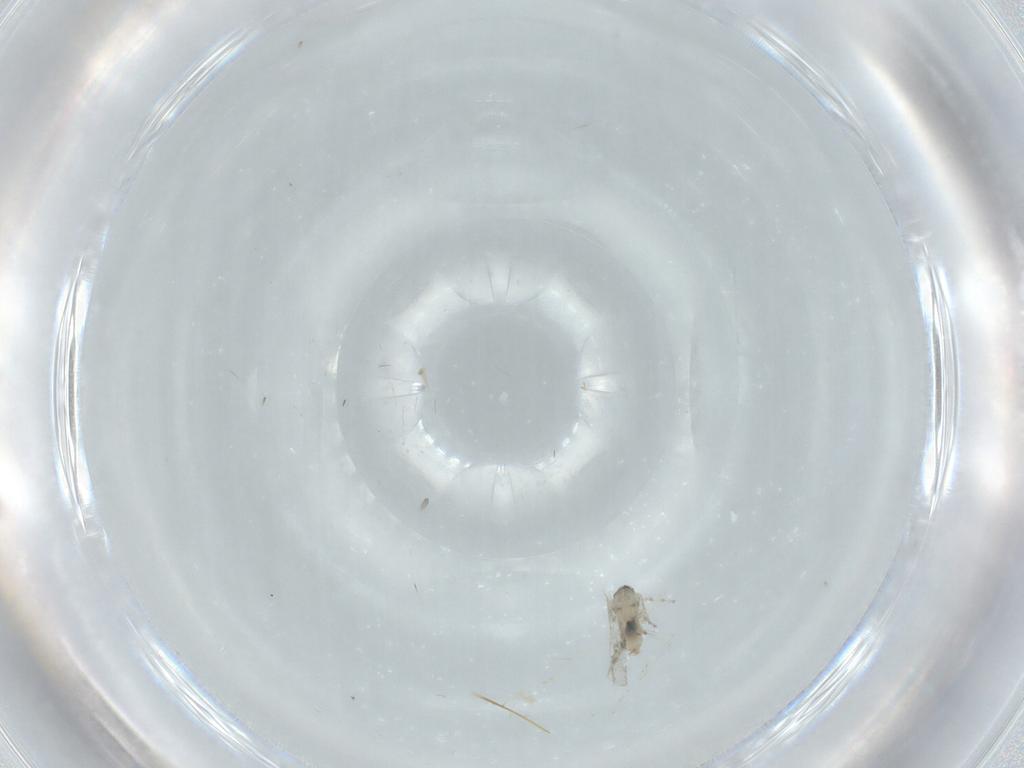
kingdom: Animalia
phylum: Arthropoda
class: Insecta
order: Diptera
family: Cecidomyiidae
